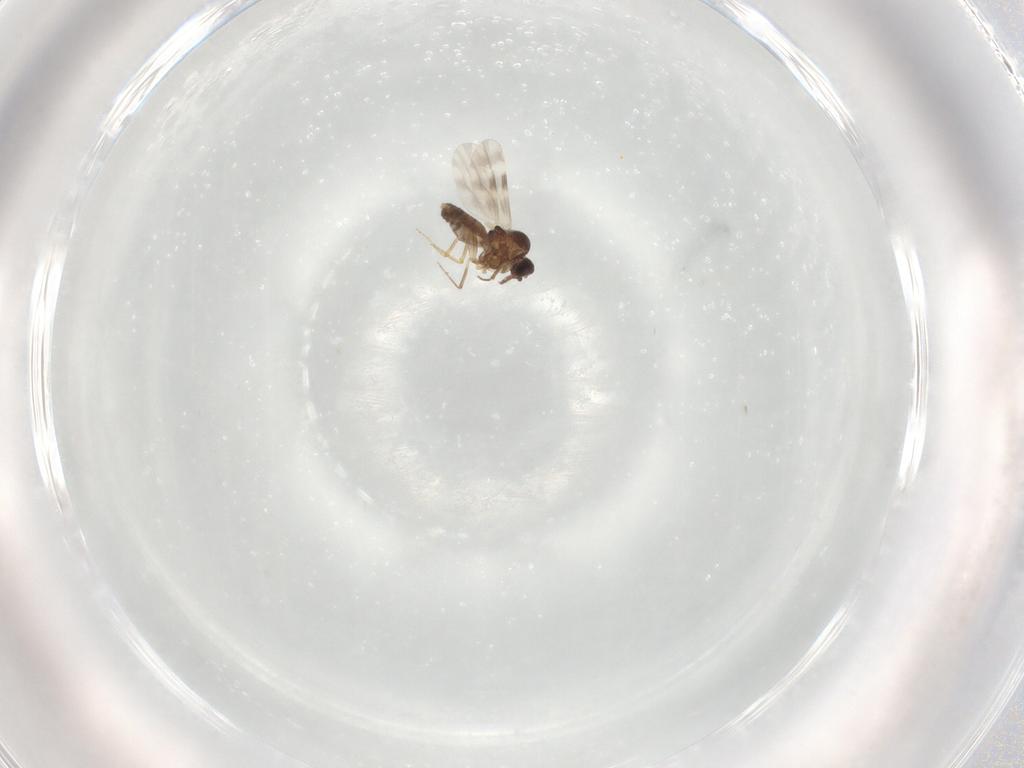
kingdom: Animalia
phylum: Arthropoda
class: Insecta
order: Diptera
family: Ceratopogonidae
